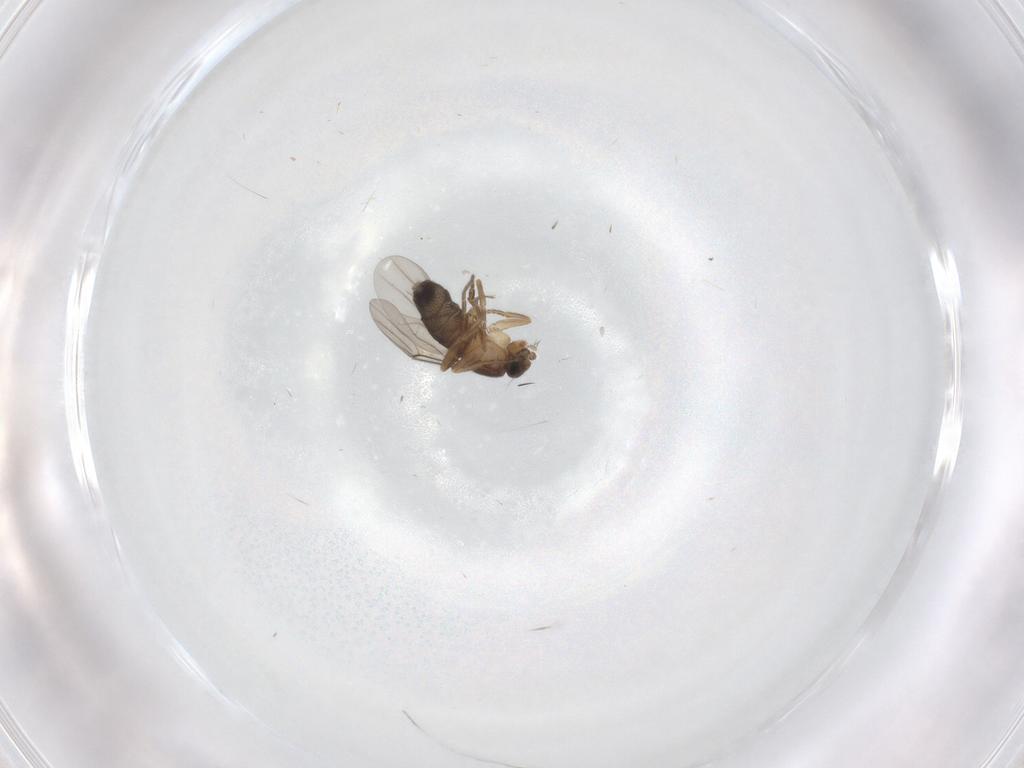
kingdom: Animalia
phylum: Arthropoda
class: Insecta
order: Diptera
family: Phoridae
